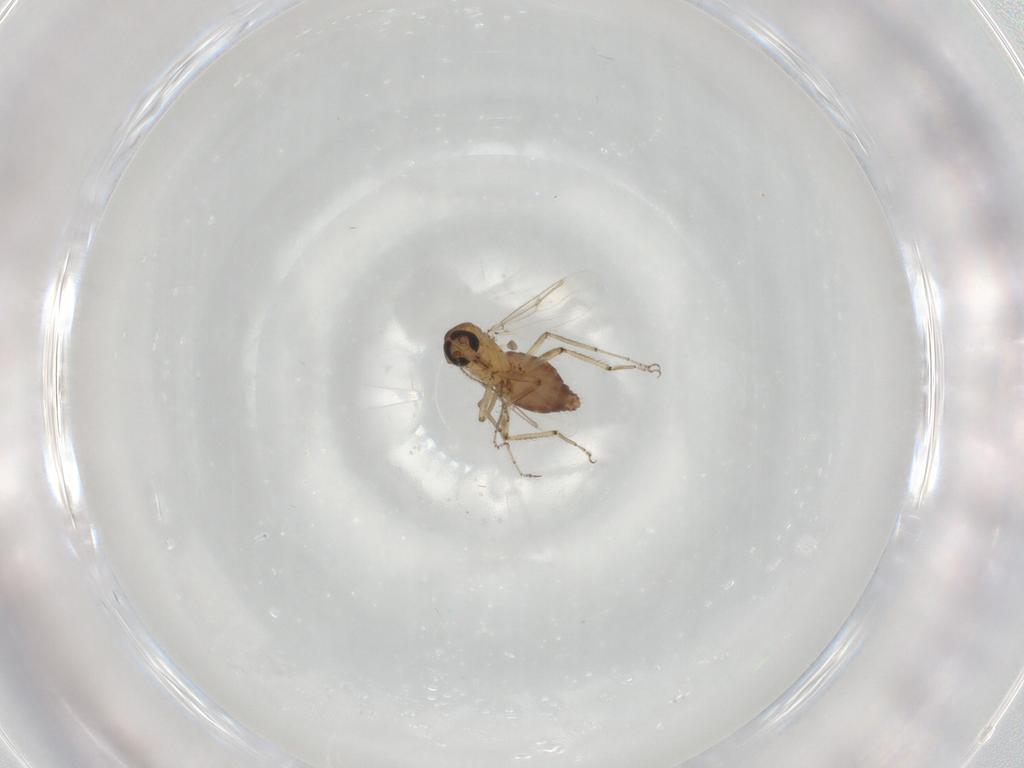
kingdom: Animalia
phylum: Arthropoda
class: Insecta
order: Diptera
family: Ceratopogonidae
